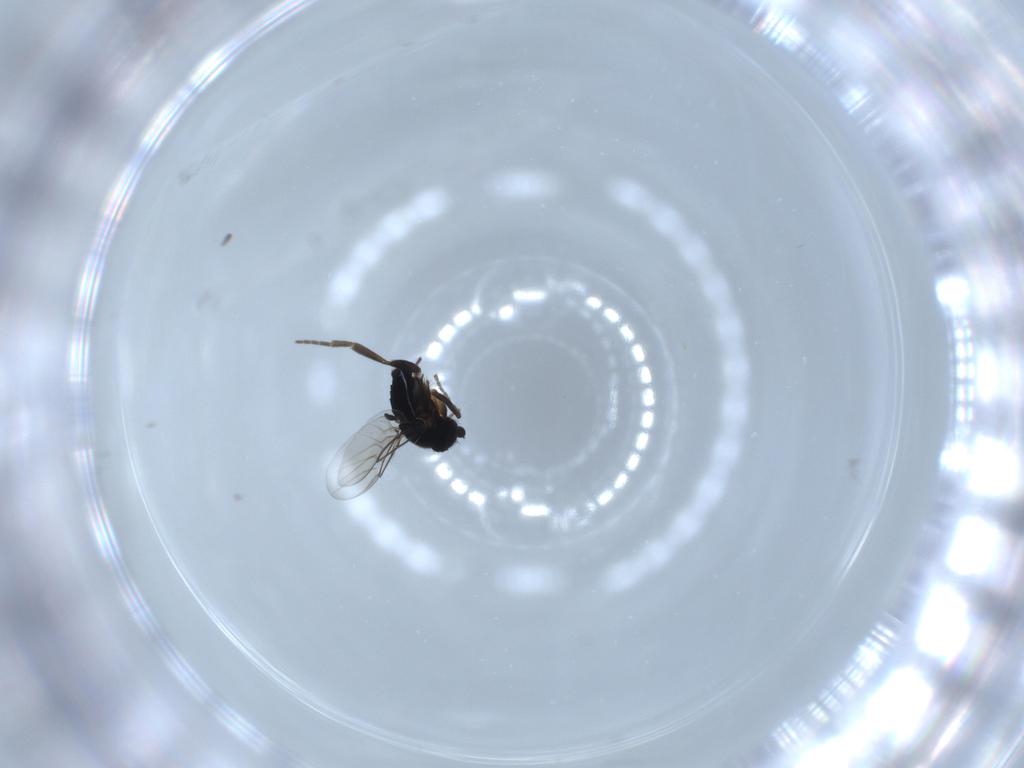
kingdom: Animalia
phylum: Arthropoda
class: Insecta
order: Diptera
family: Phoridae
